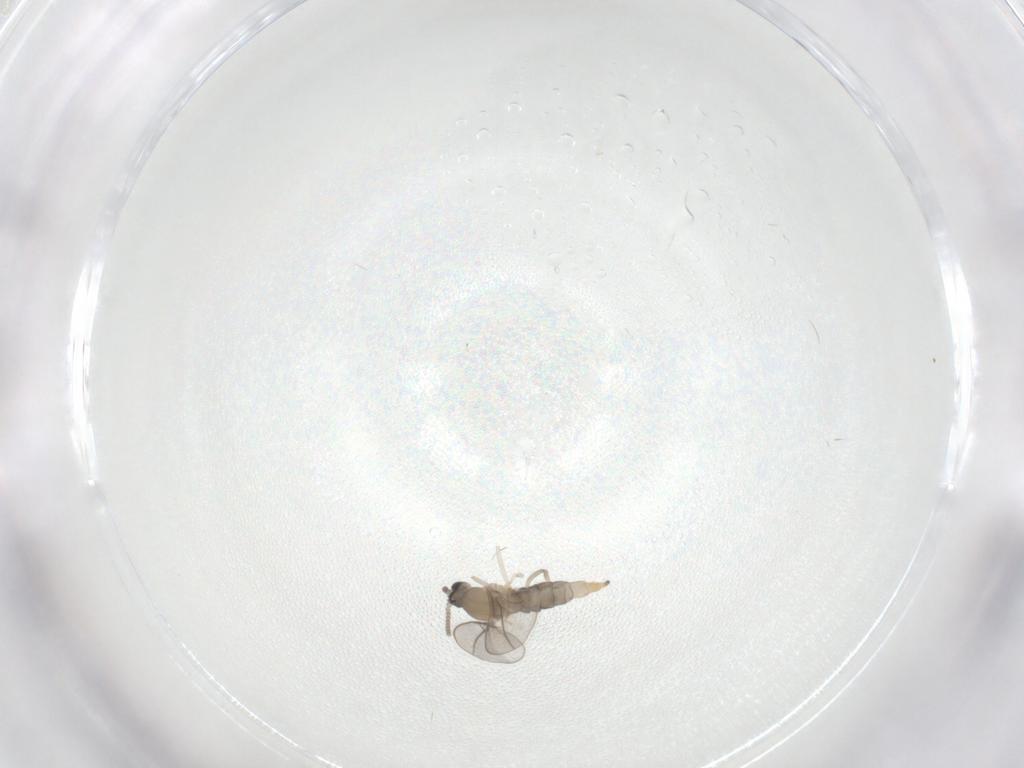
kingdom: Animalia
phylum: Arthropoda
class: Insecta
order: Diptera
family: Cecidomyiidae
